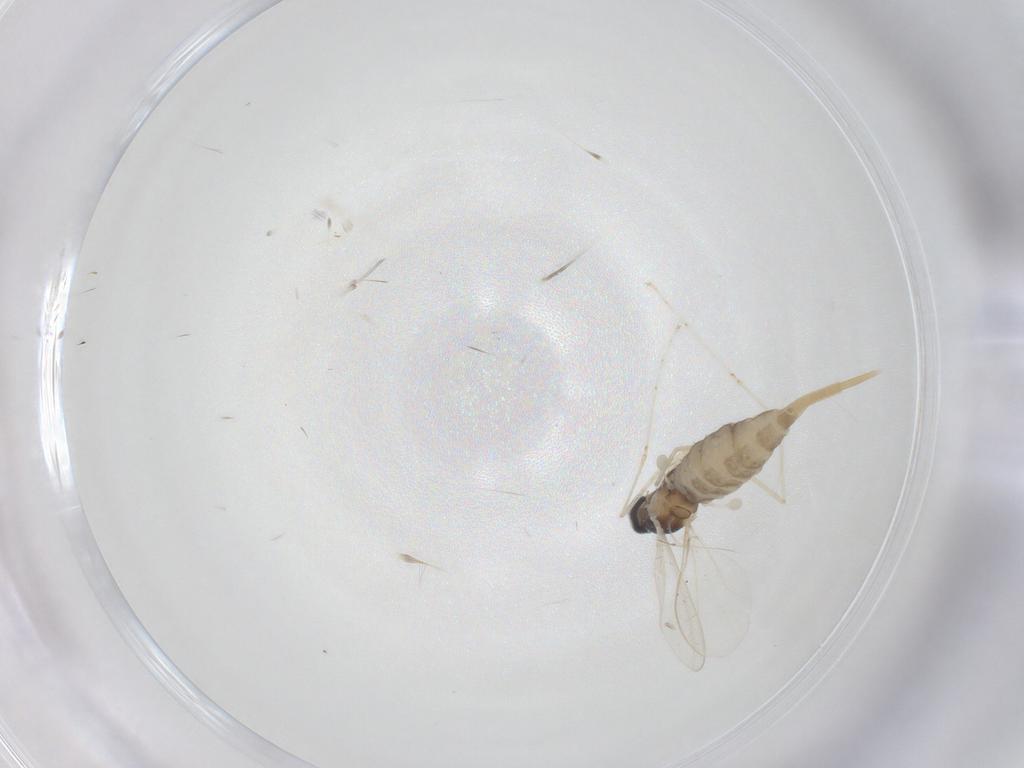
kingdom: Animalia
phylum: Arthropoda
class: Insecta
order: Diptera
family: Cecidomyiidae
